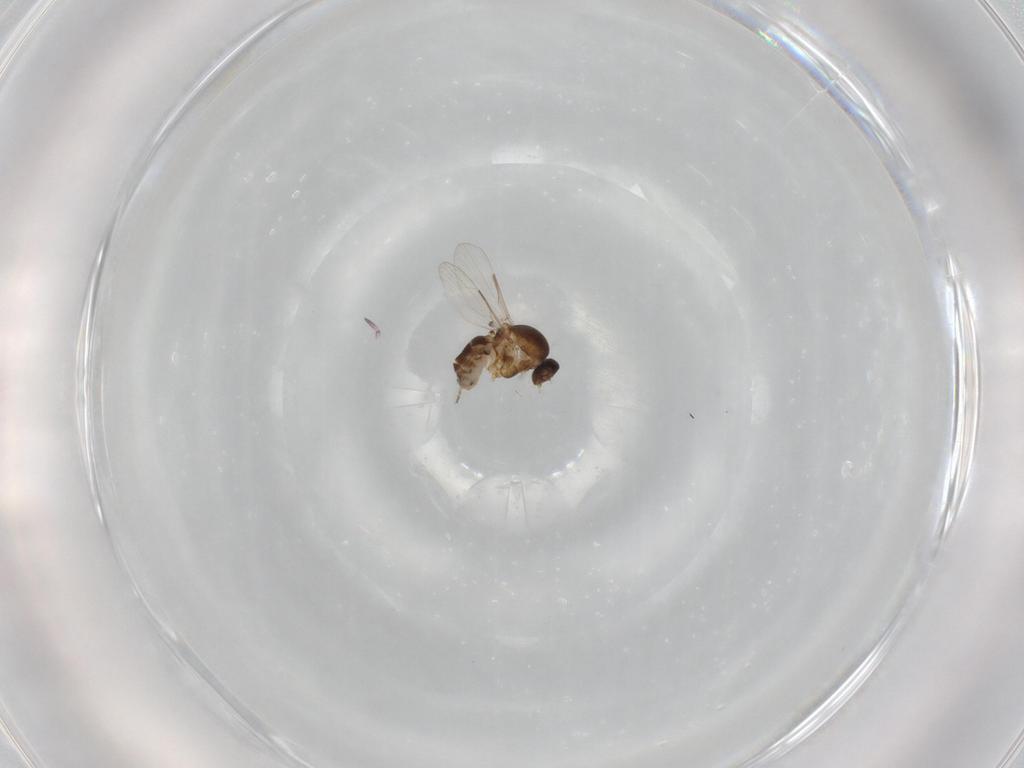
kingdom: Animalia
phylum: Arthropoda
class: Insecta
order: Diptera
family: Ceratopogonidae
